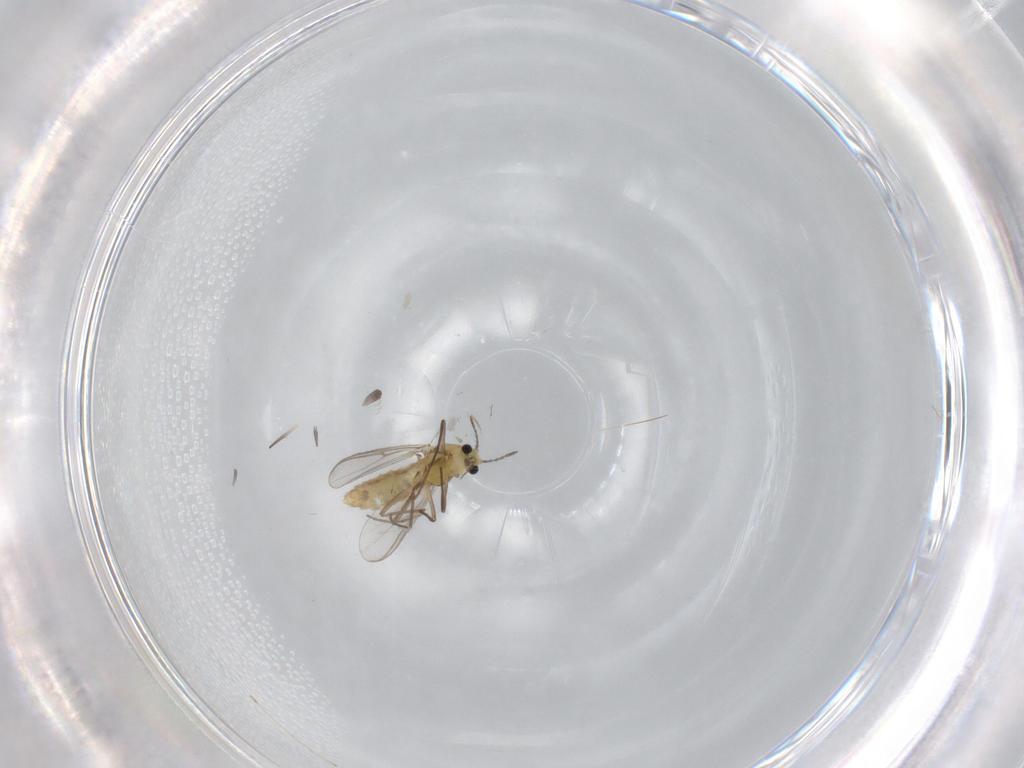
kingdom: Animalia
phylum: Arthropoda
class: Insecta
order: Diptera
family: Chironomidae
